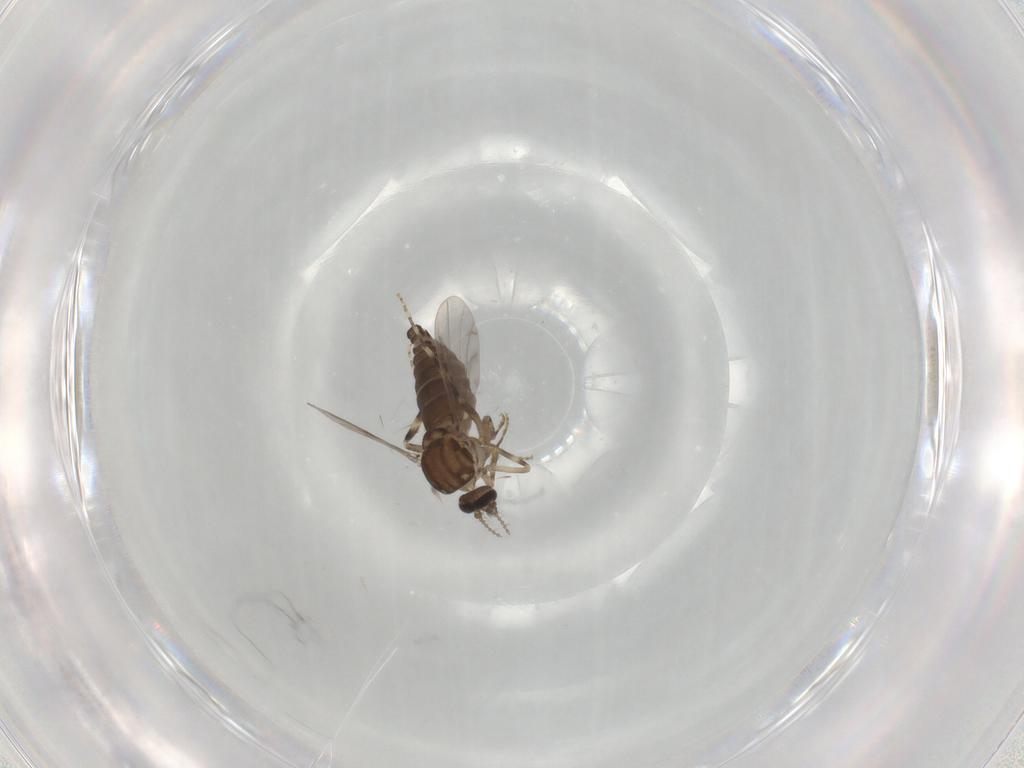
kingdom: Animalia
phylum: Arthropoda
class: Insecta
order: Diptera
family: Ceratopogonidae
